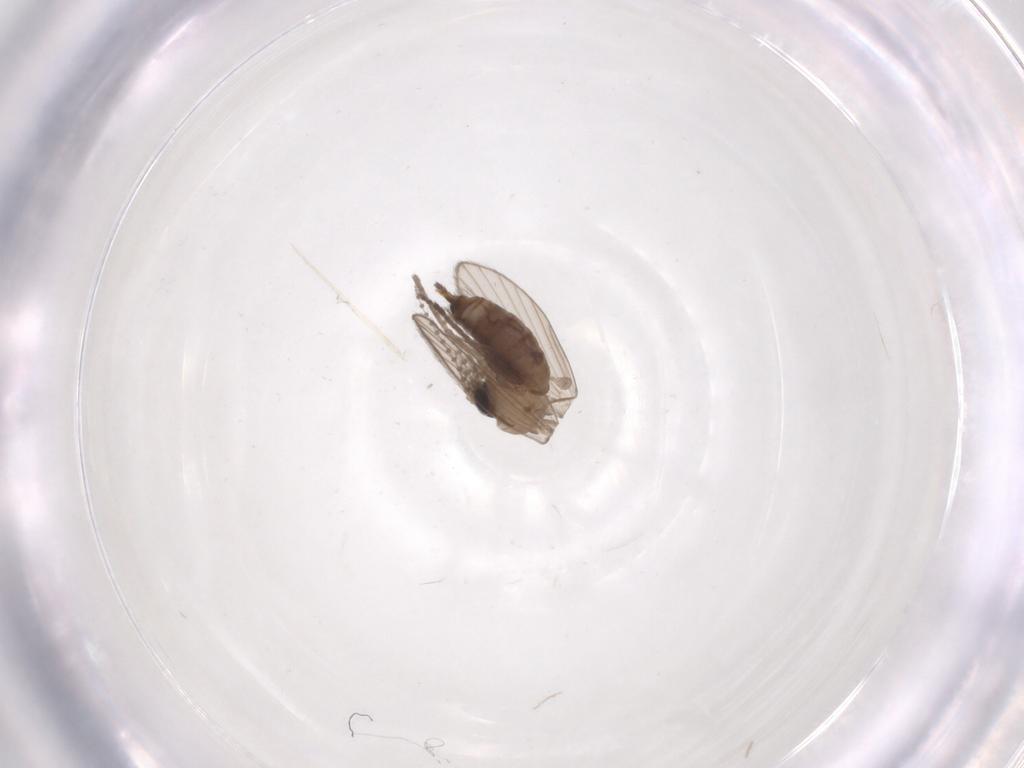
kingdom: Animalia
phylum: Arthropoda
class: Insecta
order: Diptera
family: Psychodidae
